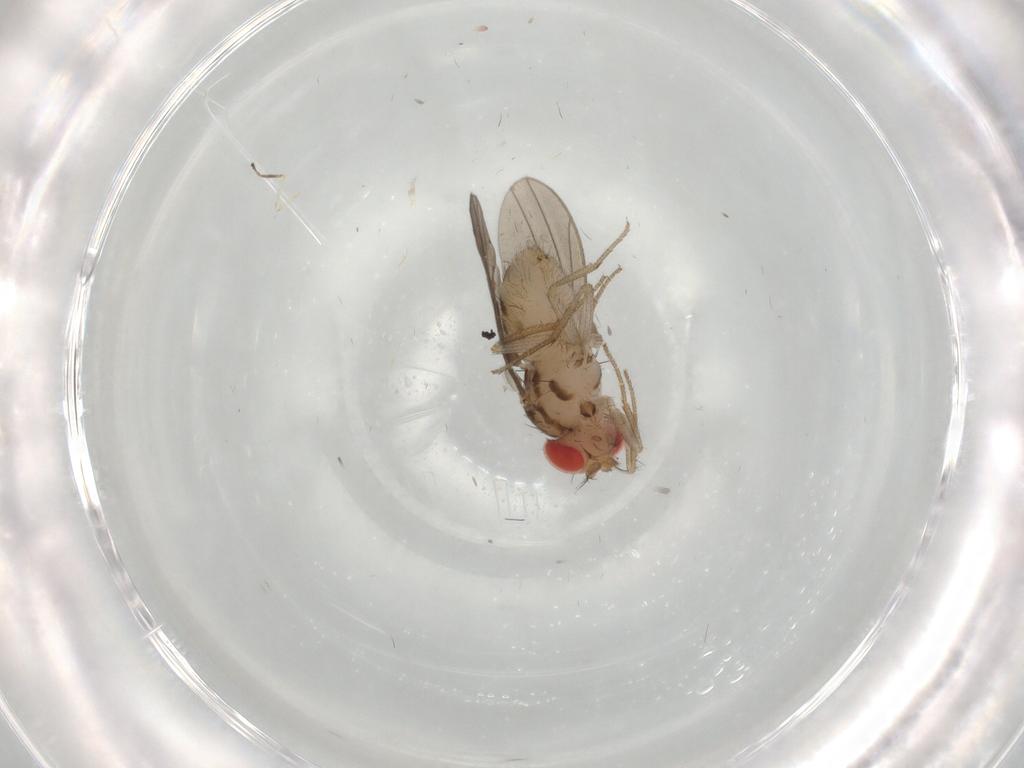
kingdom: Animalia
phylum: Arthropoda
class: Insecta
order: Diptera
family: Drosophilidae
